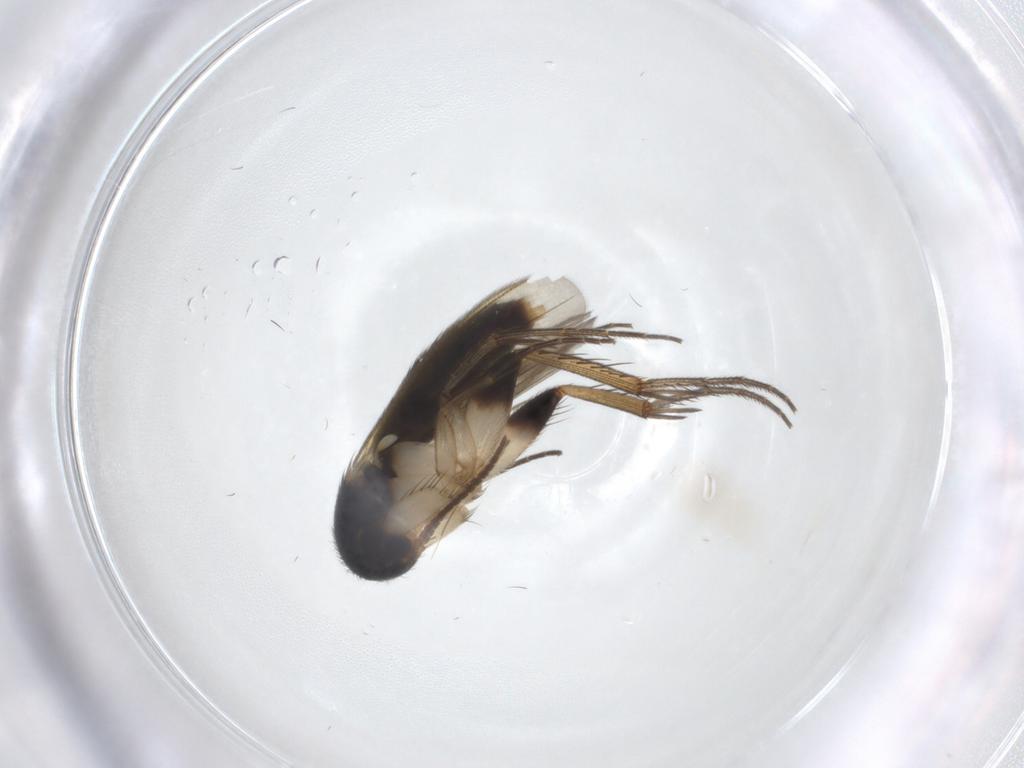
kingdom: Animalia
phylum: Arthropoda
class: Insecta
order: Diptera
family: Mycetophilidae
